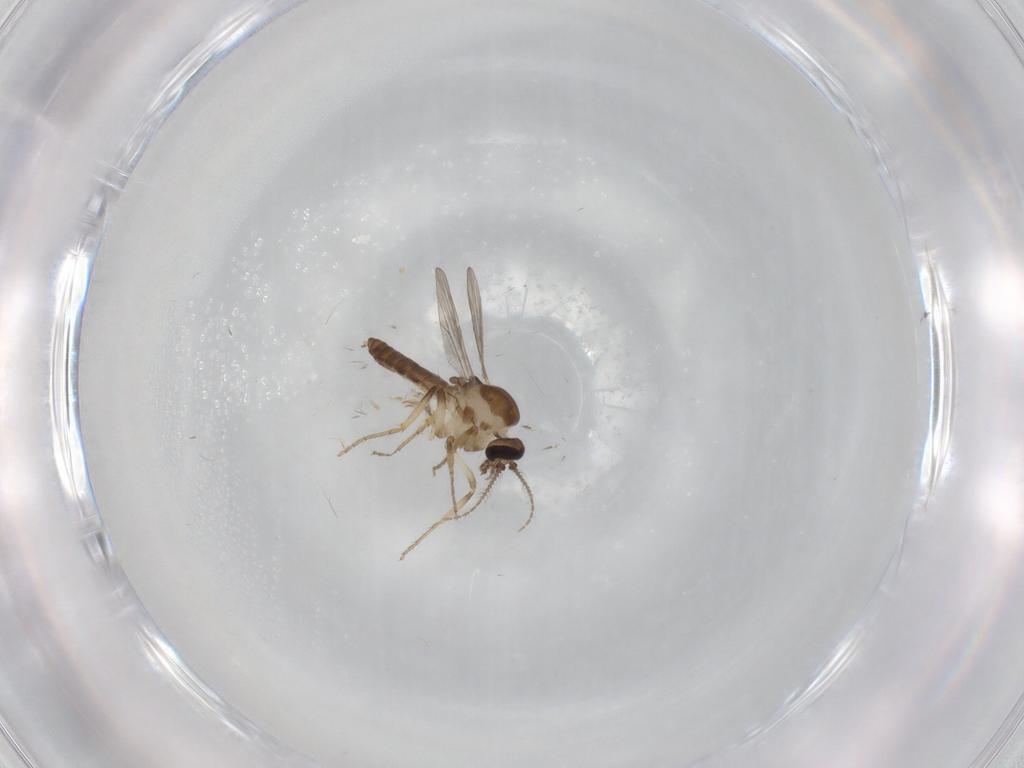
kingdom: Animalia
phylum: Arthropoda
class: Insecta
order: Diptera
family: Limoniidae
